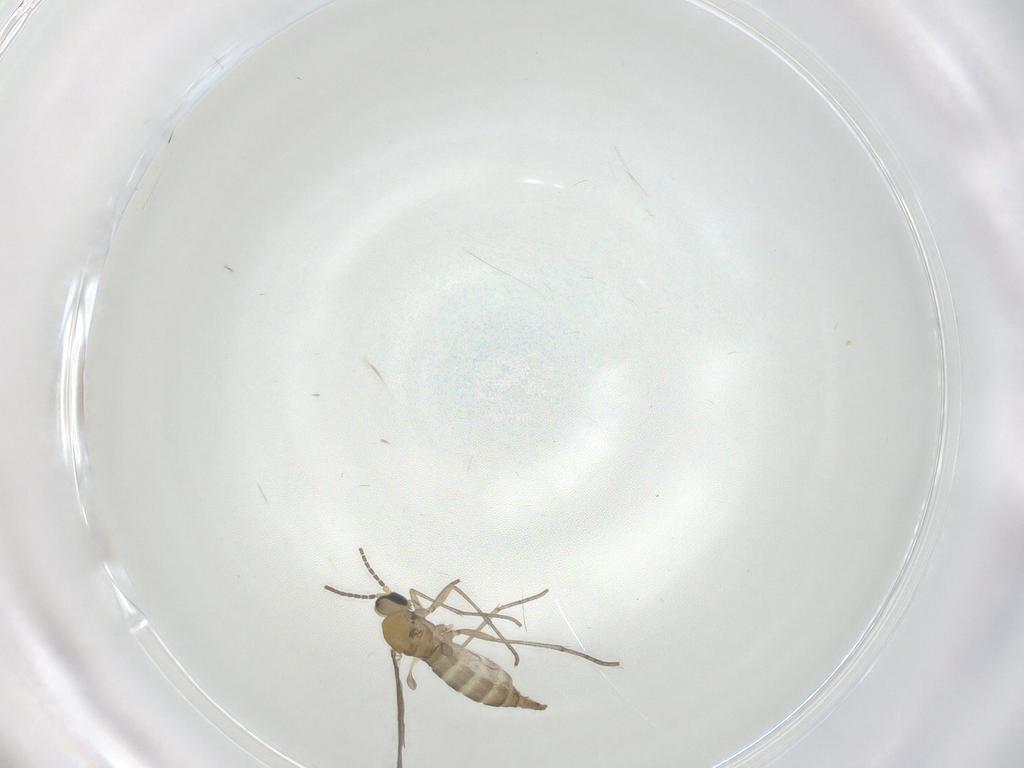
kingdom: Animalia
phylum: Arthropoda
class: Insecta
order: Diptera
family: Sciaridae
